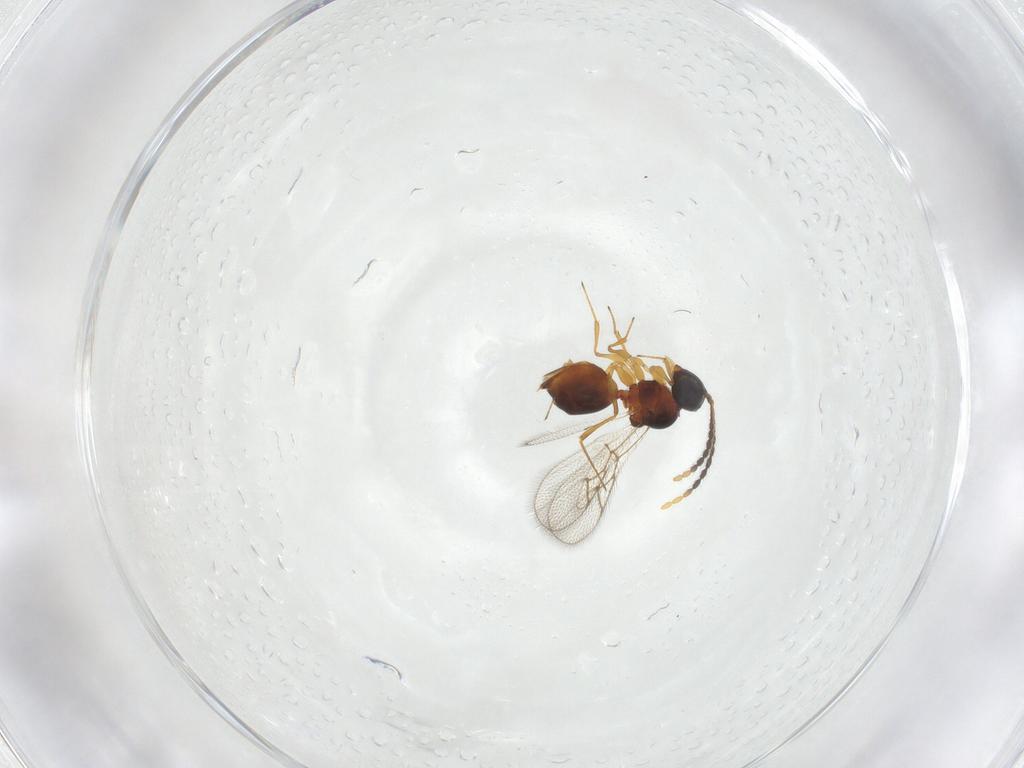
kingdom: Animalia
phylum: Arthropoda
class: Insecta
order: Hymenoptera
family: Figitidae
